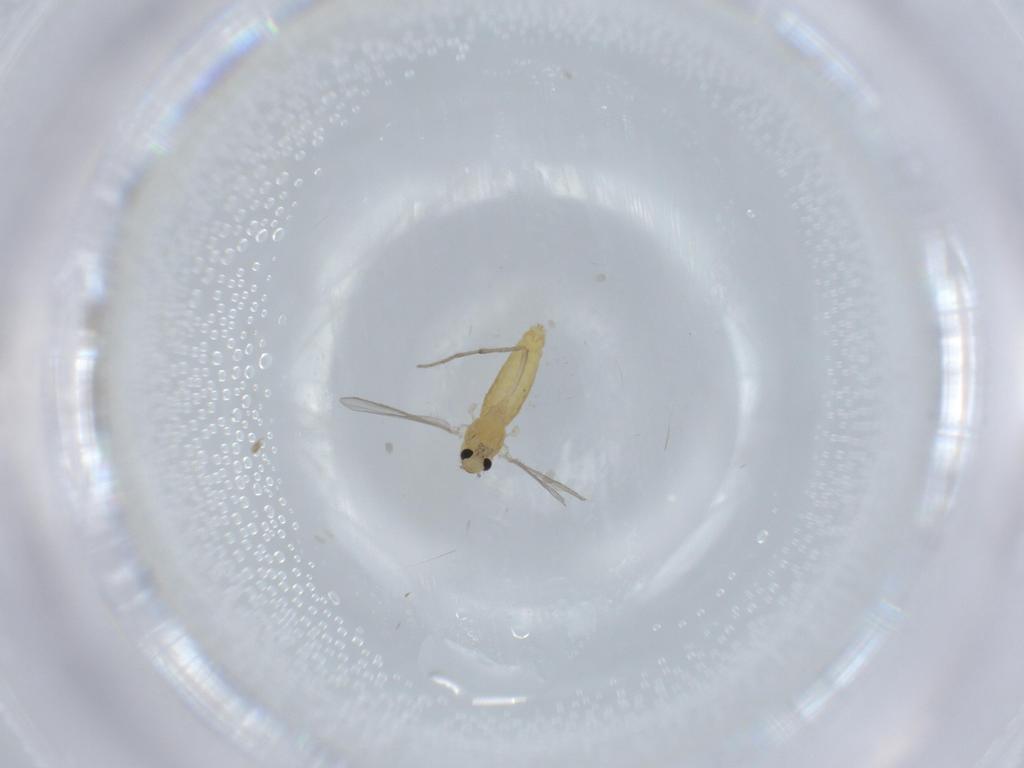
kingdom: Animalia
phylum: Arthropoda
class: Insecta
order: Diptera
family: Chironomidae
